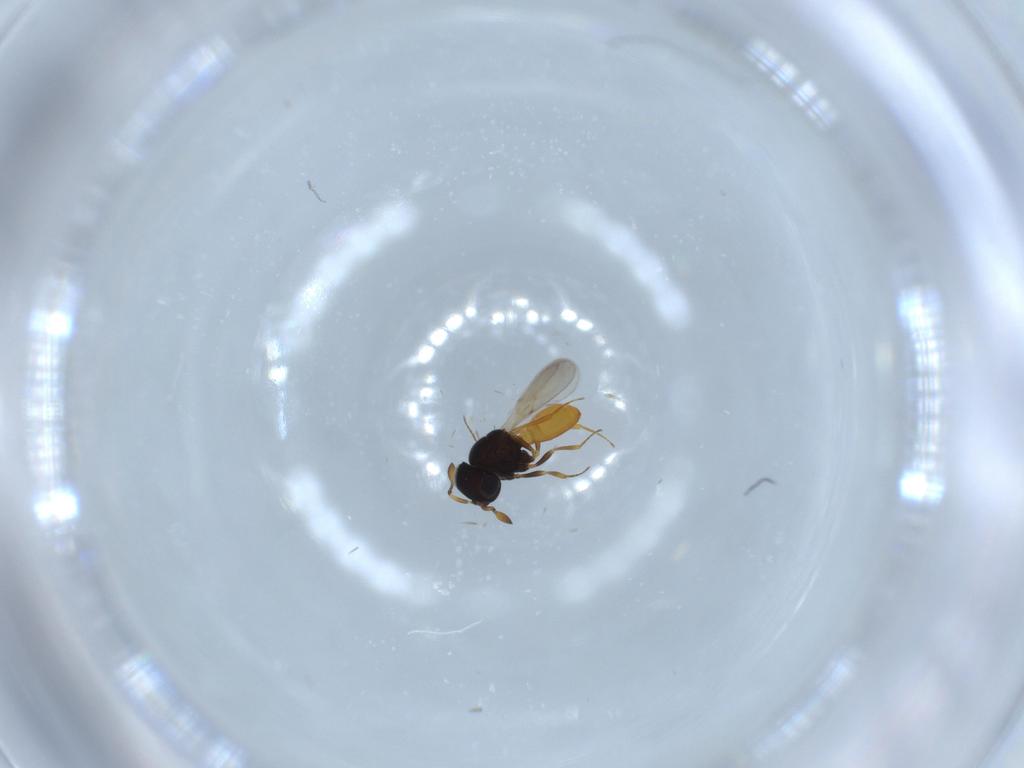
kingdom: Animalia
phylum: Arthropoda
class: Insecta
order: Hymenoptera
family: Scelionidae
